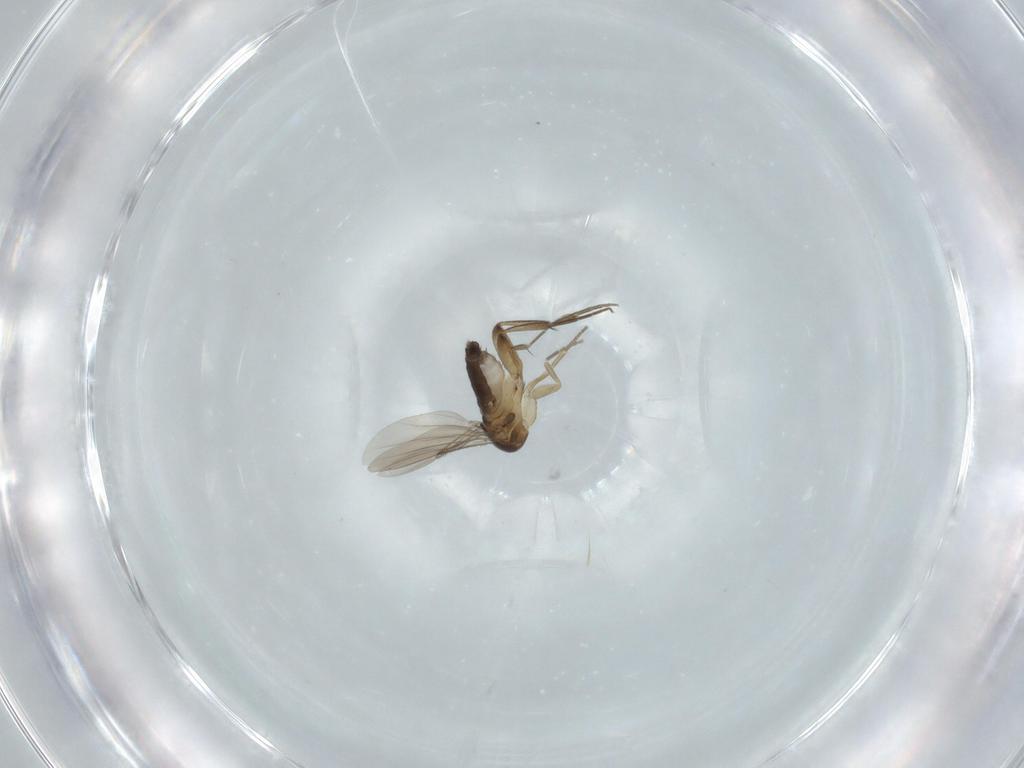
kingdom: Animalia
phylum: Arthropoda
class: Insecta
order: Diptera
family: Phoridae
